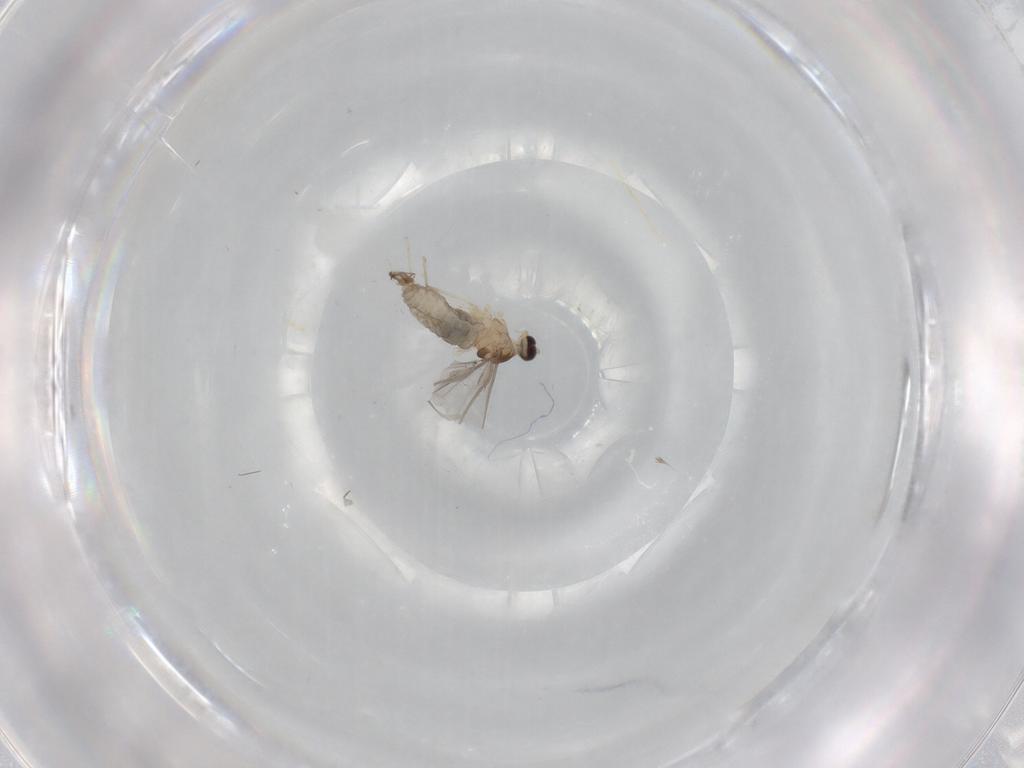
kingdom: Animalia
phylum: Arthropoda
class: Insecta
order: Diptera
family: Cecidomyiidae
